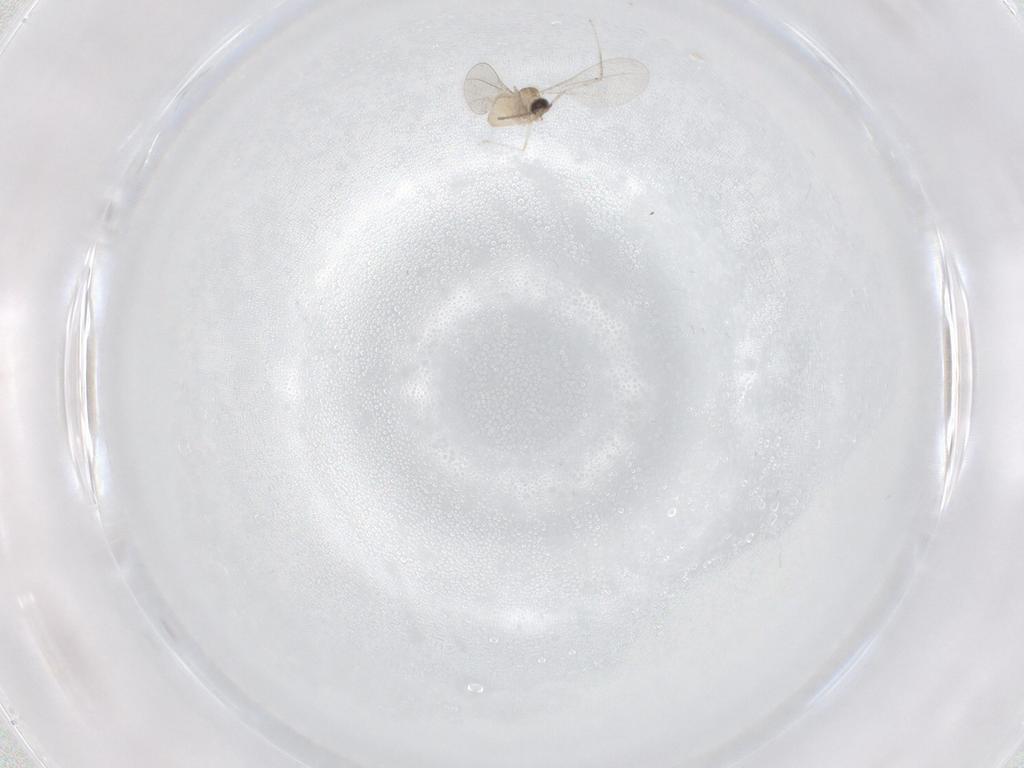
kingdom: Animalia
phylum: Arthropoda
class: Insecta
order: Diptera
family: Cecidomyiidae
